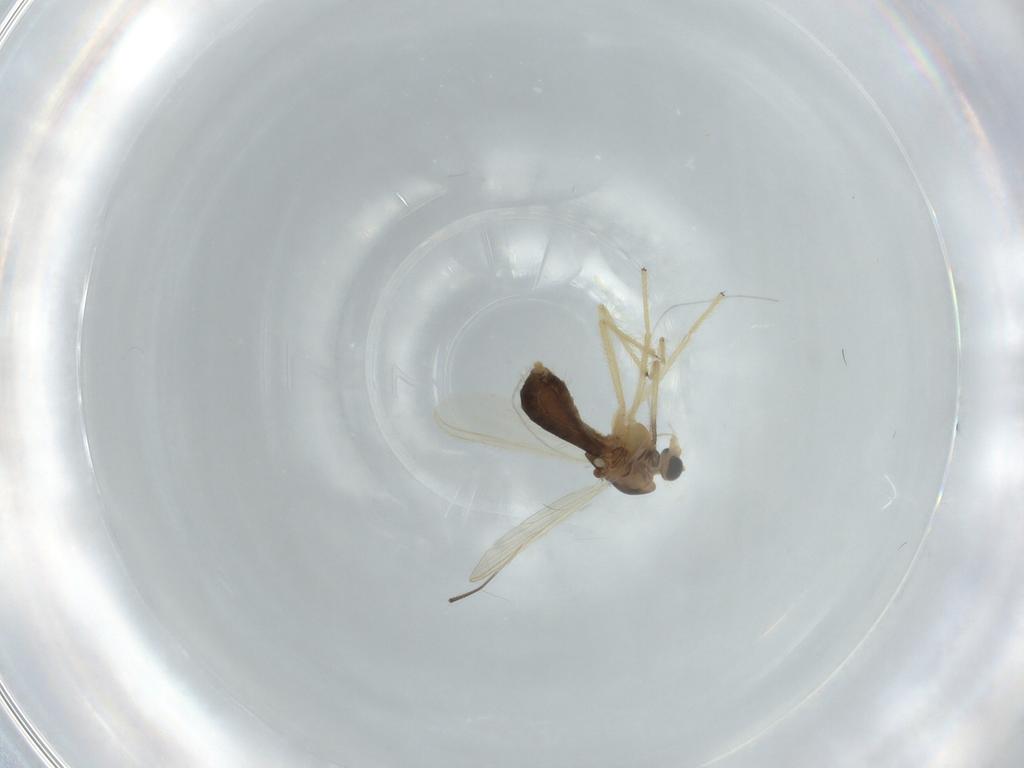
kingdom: Animalia
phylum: Arthropoda
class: Insecta
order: Diptera
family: Chironomidae
